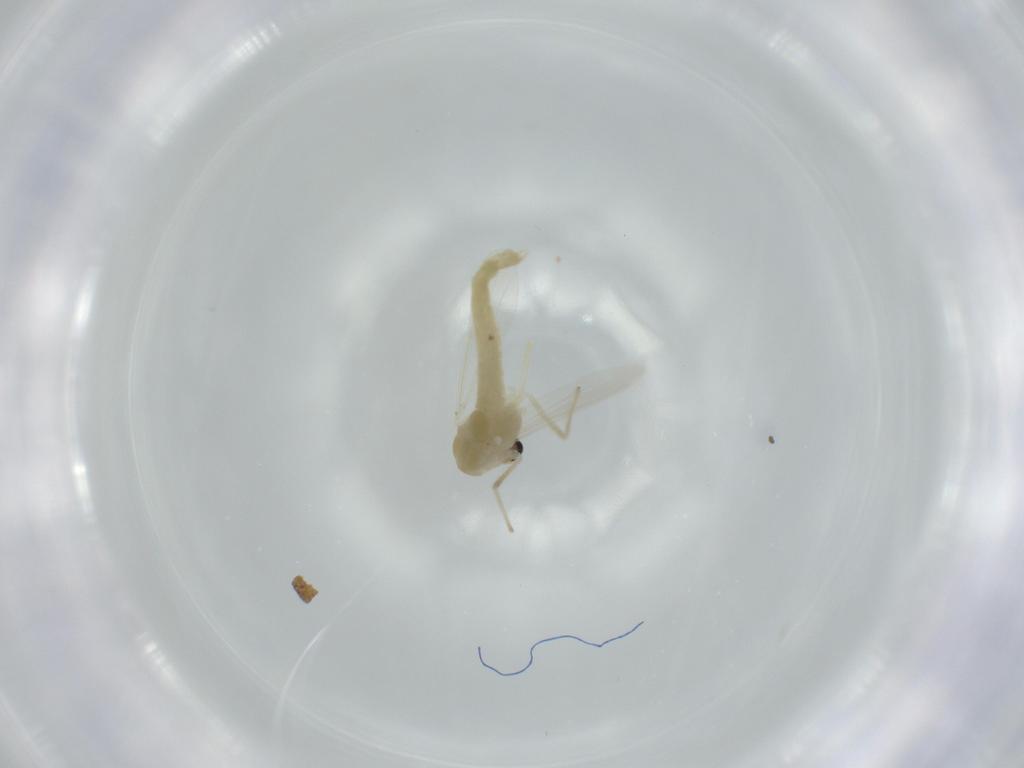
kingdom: Animalia
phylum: Arthropoda
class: Insecta
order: Diptera
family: Chironomidae
